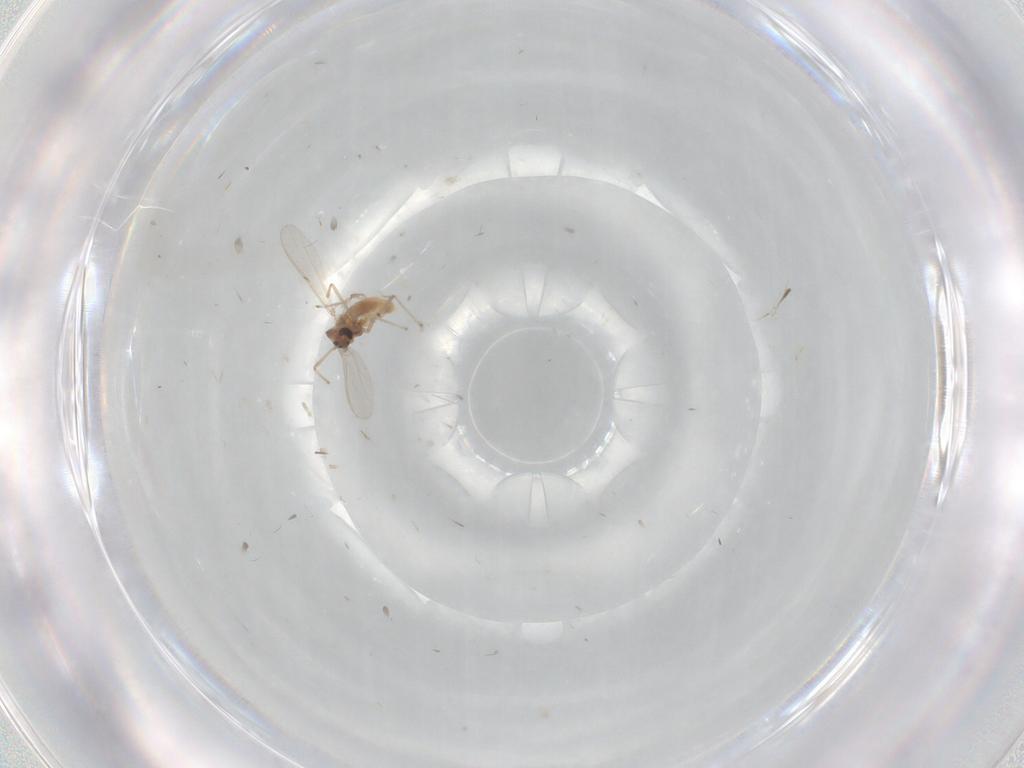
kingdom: Animalia
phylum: Arthropoda
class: Insecta
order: Diptera
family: Chironomidae
